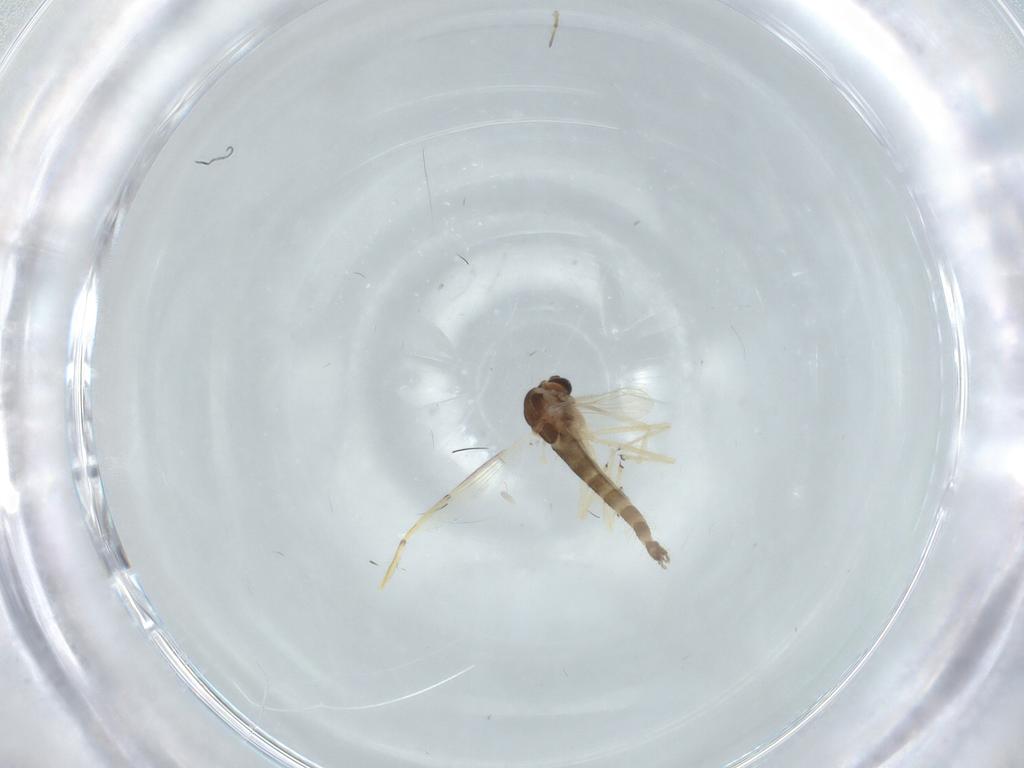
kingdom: Animalia
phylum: Arthropoda
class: Insecta
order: Diptera
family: Chironomidae
